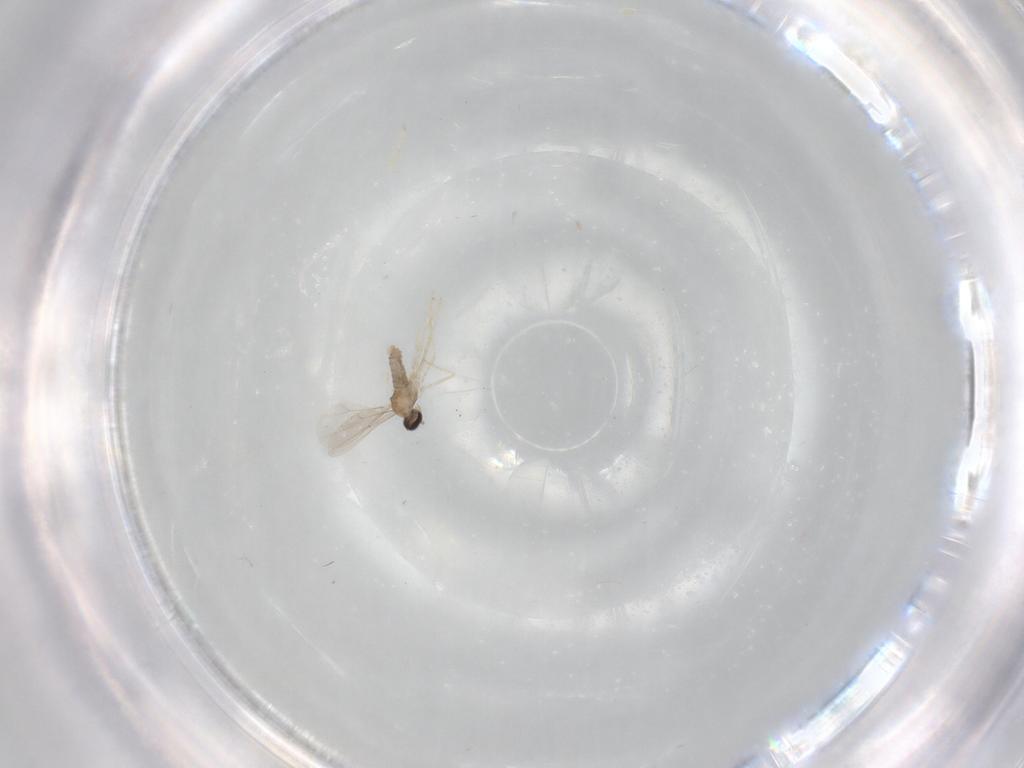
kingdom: Animalia
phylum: Arthropoda
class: Insecta
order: Diptera
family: Cecidomyiidae
